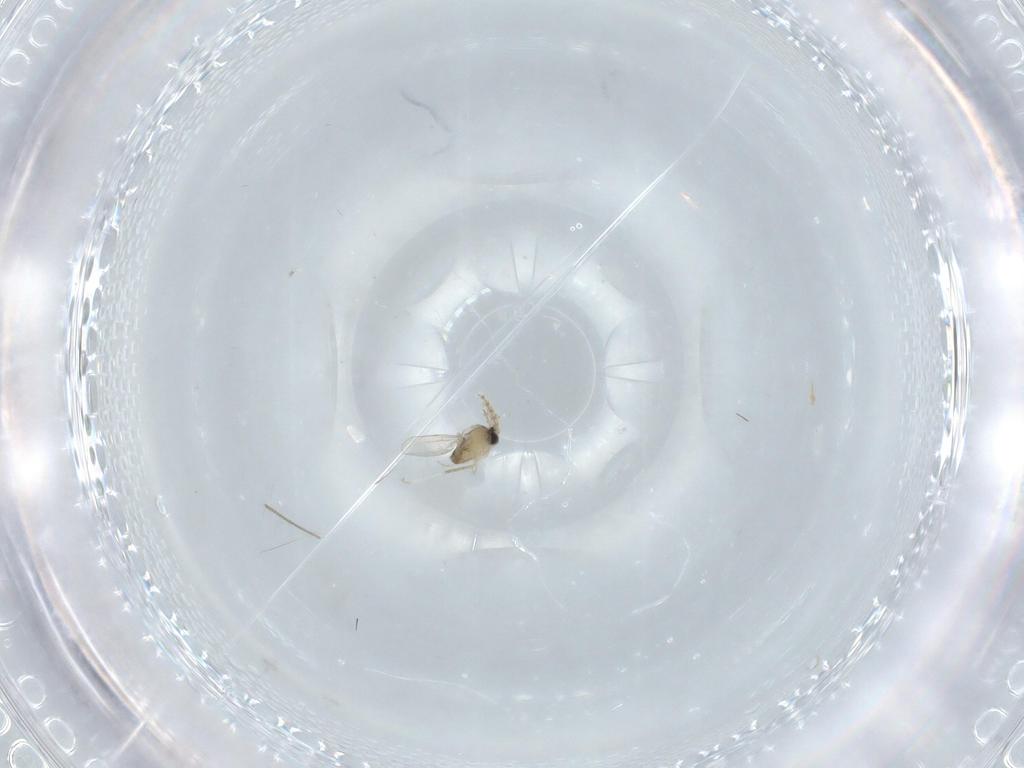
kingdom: Animalia
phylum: Arthropoda
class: Insecta
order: Diptera
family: Cecidomyiidae
